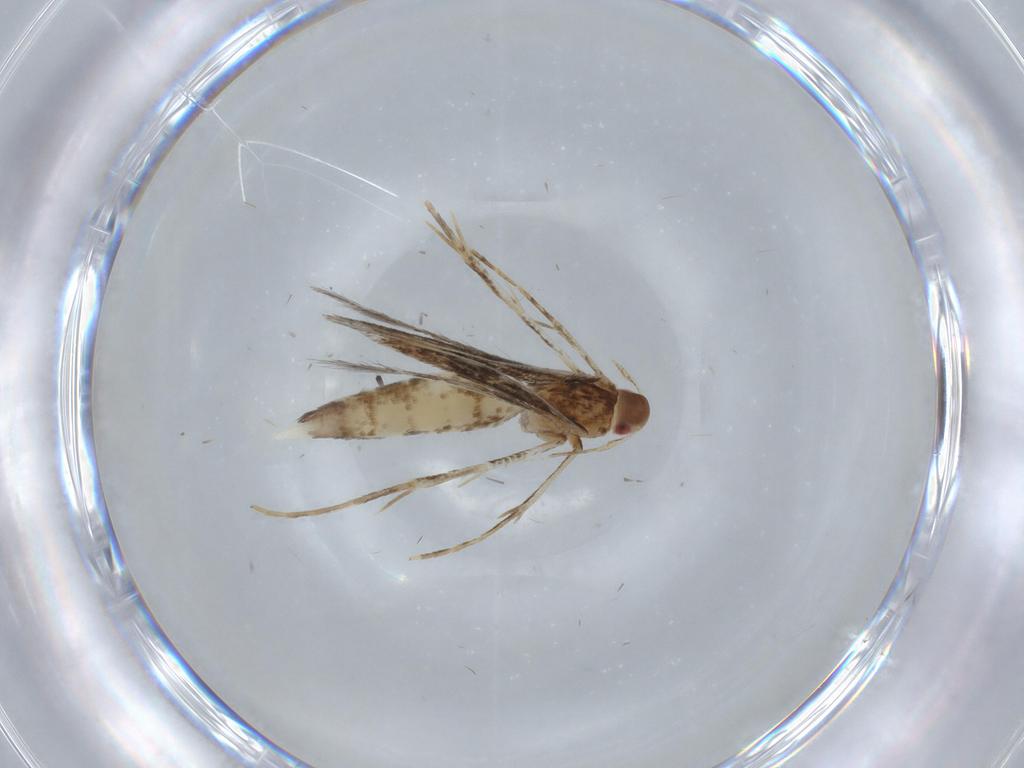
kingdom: Animalia
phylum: Arthropoda
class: Insecta
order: Lepidoptera
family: Cosmopterigidae
